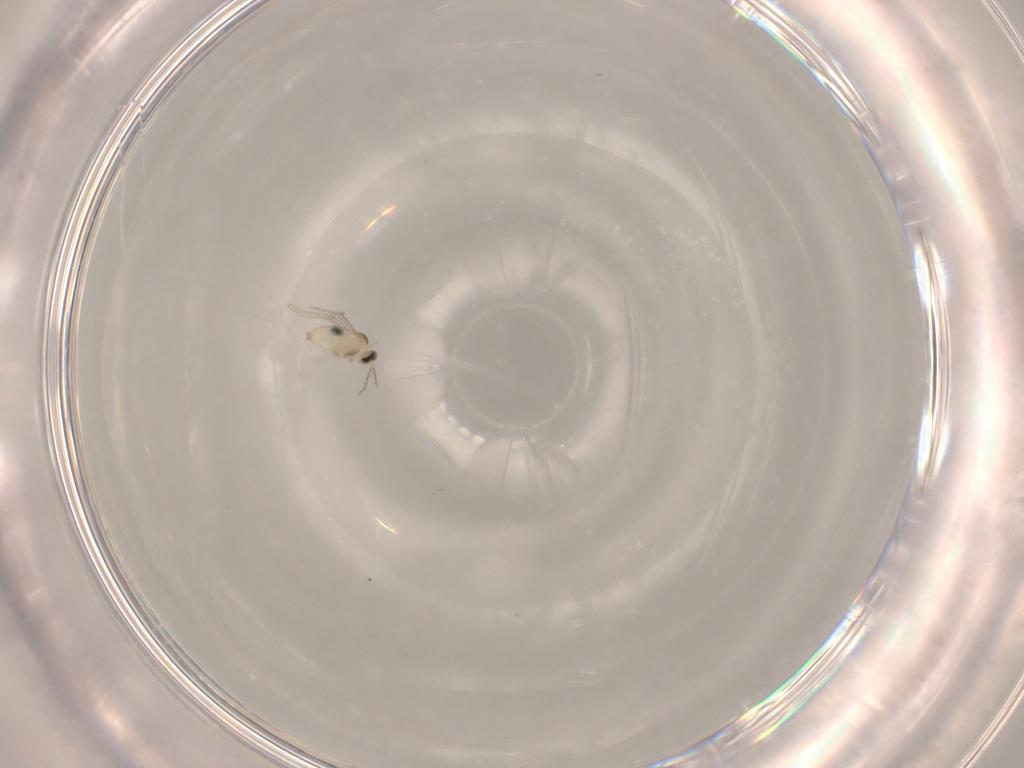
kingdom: Animalia
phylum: Arthropoda
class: Insecta
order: Diptera
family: Cecidomyiidae
